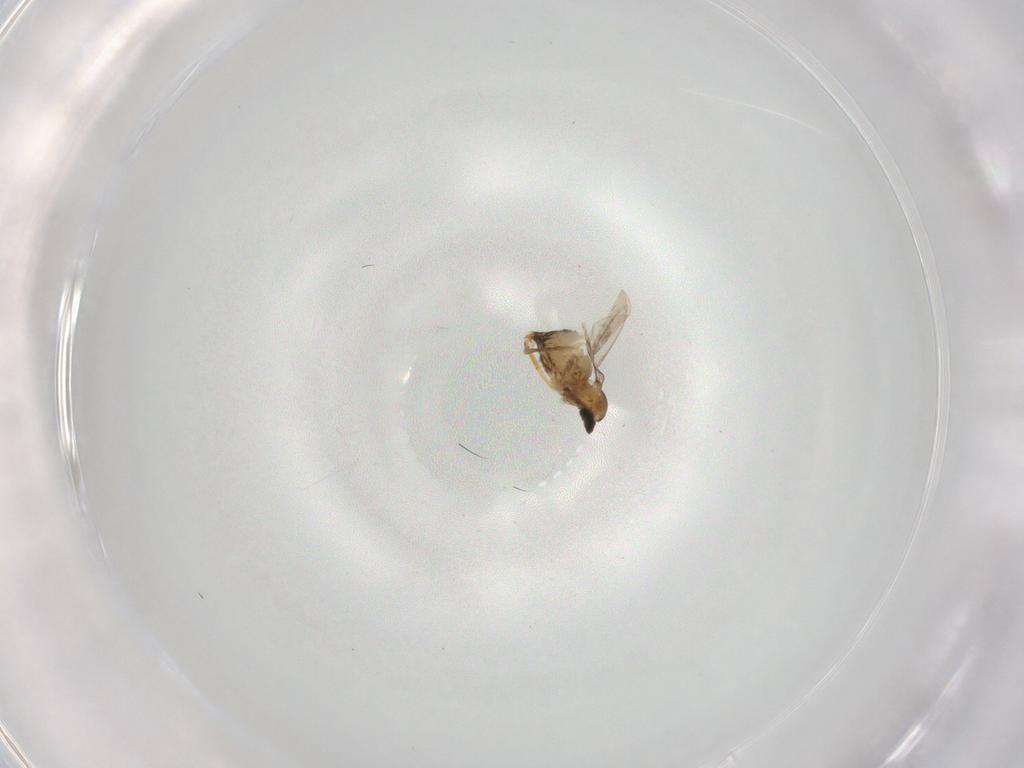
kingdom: Animalia
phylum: Arthropoda
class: Insecta
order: Diptera
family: Cecidomyiidae
